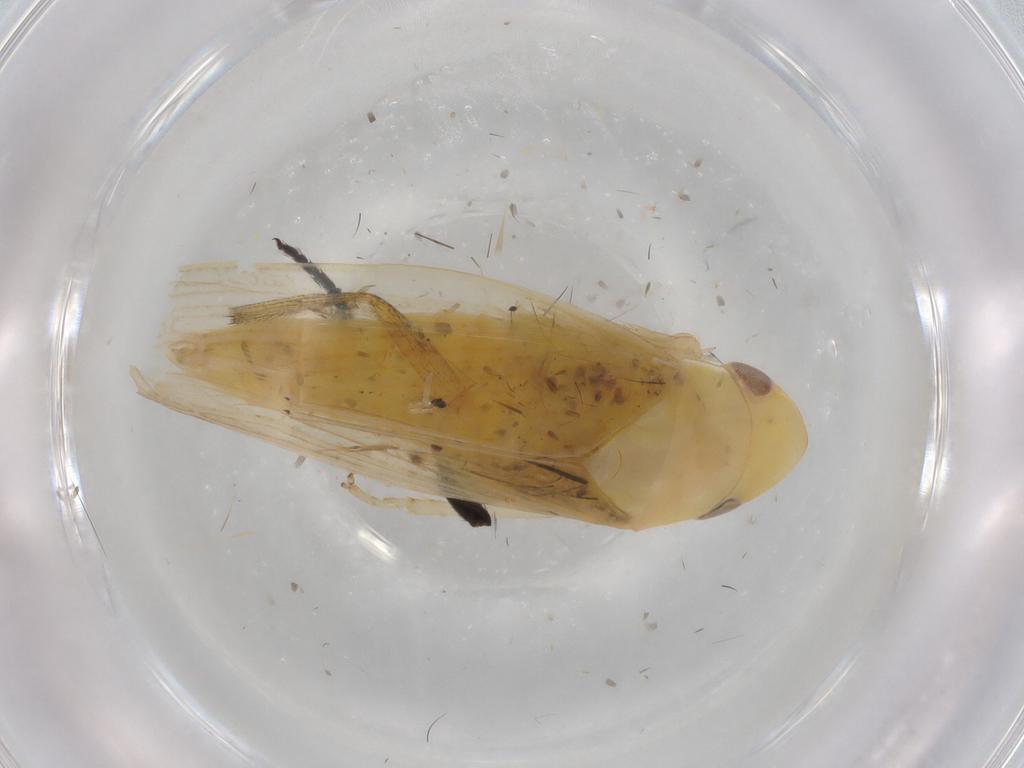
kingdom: Animalia
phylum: Arthropoda
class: Insecta
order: Hemiptera
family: Cicadellidae
